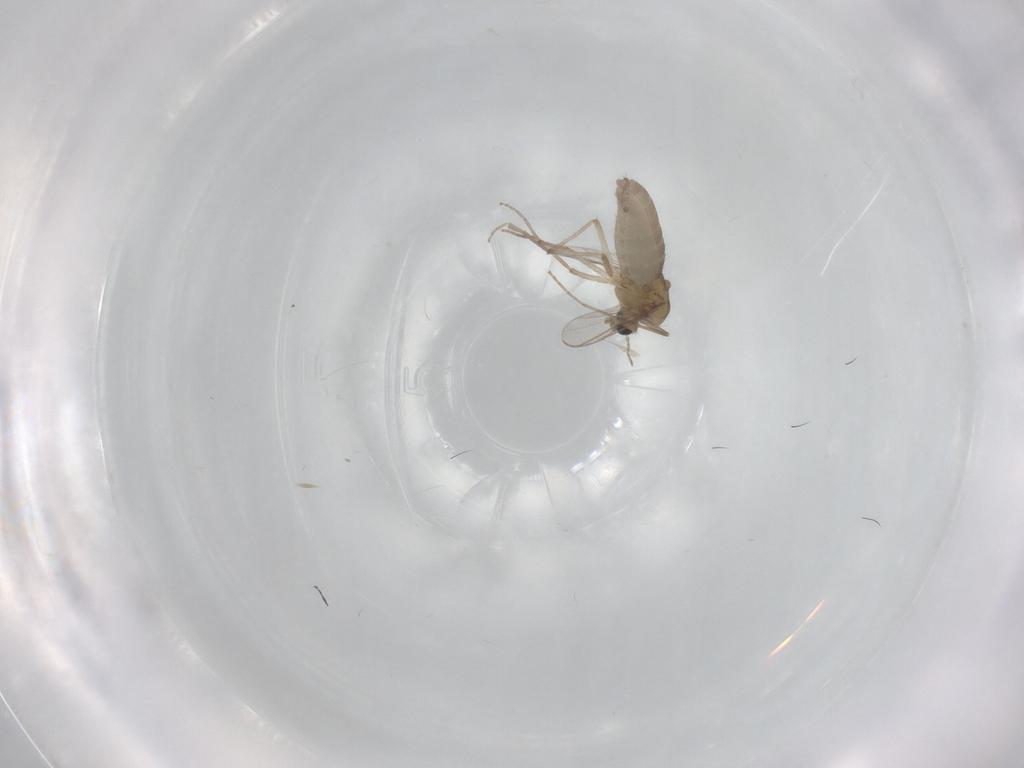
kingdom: Animalia
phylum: Arthropoda
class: Insecta
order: Diptera
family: Chironomidae
